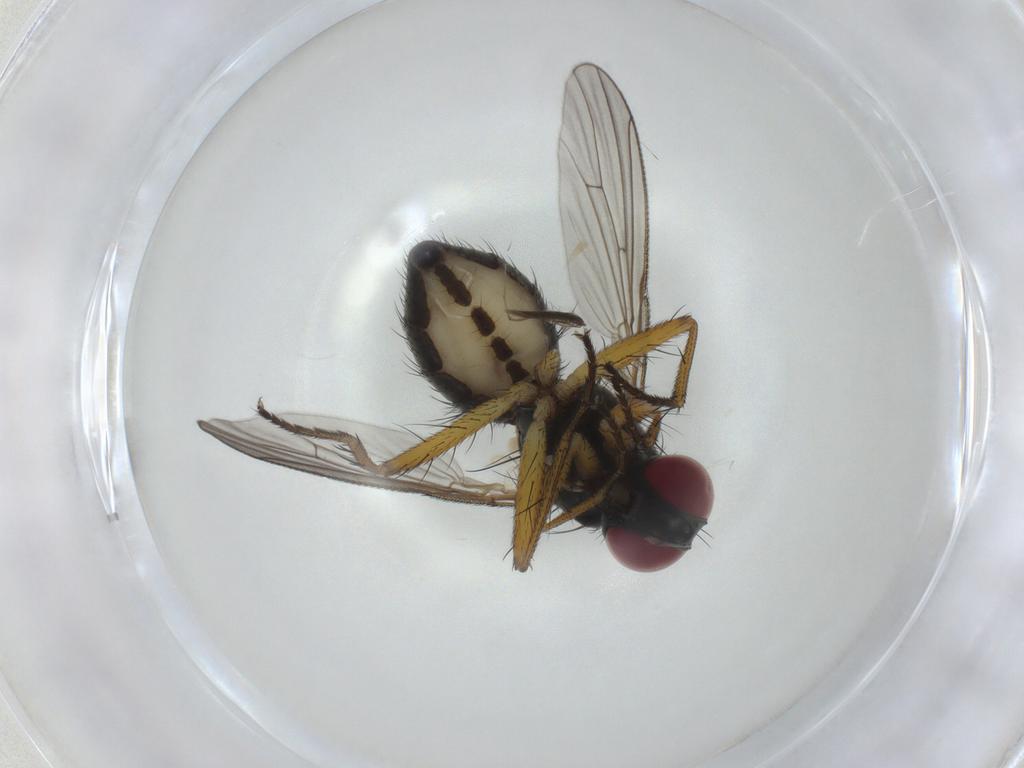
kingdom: Animalia
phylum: Arthropoda
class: Insecta
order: Diptera
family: Muscidae
